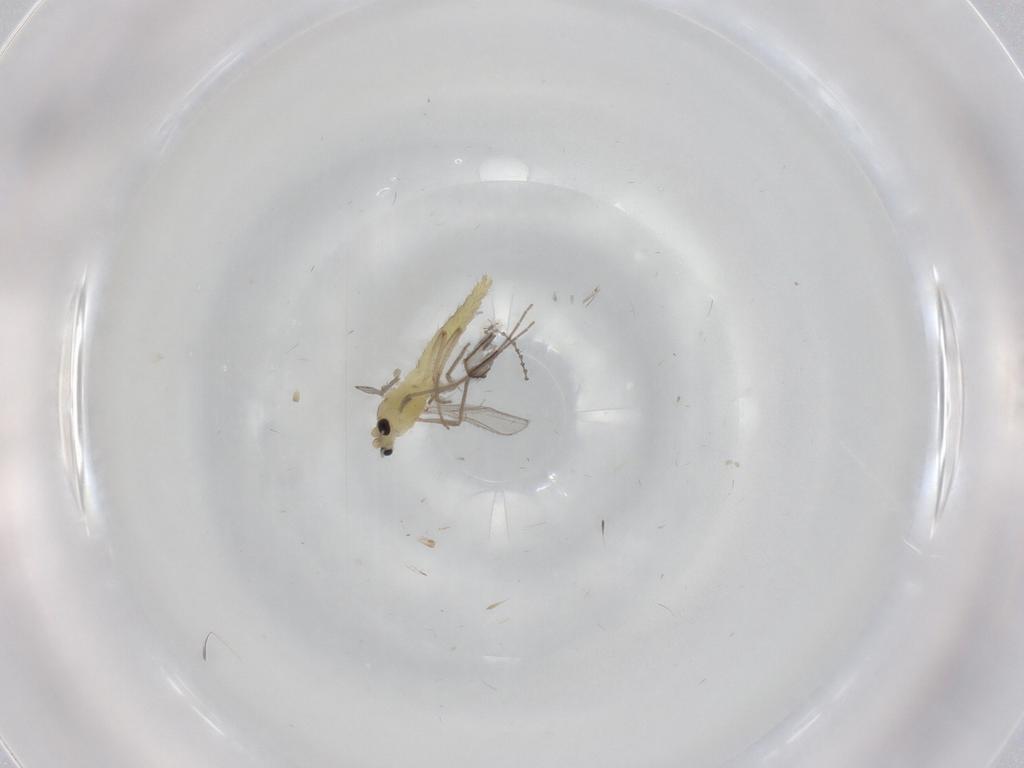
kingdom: Animalia
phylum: Arthropoda
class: Insecta
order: Diptera
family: Chironomidae
